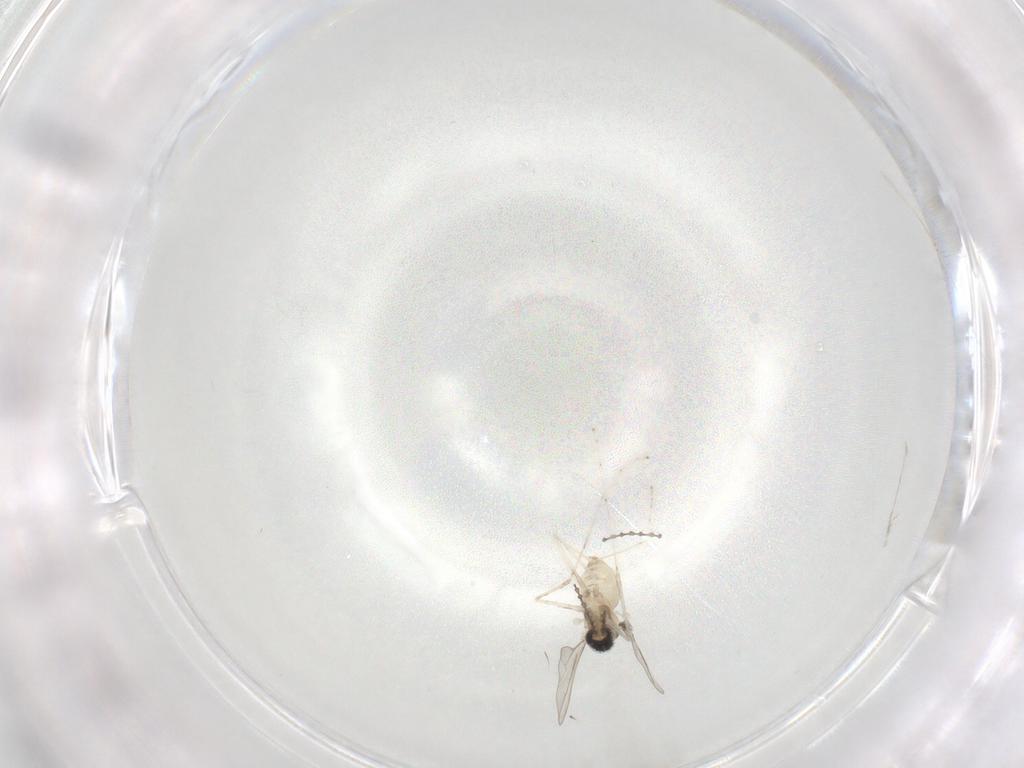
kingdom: Animalia
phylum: Arthropoda
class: Insecta
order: Diptera
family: Cecidomyiidae
